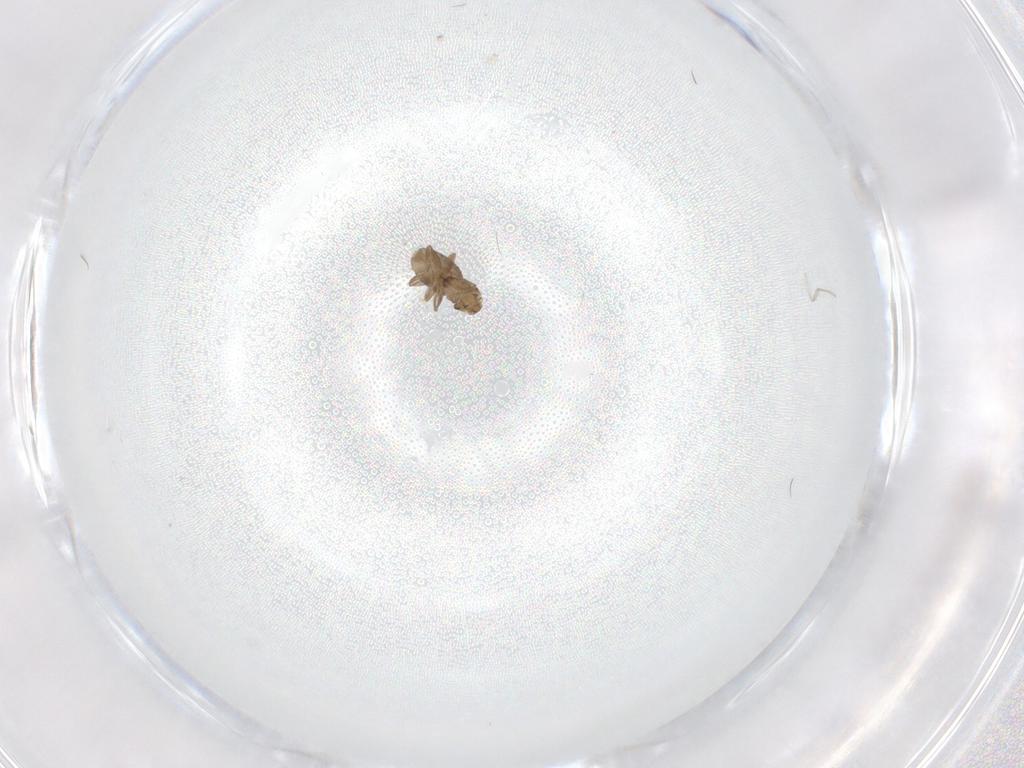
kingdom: Animalia
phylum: Arthropoda
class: Insecta
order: Diptera
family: Cecidomyiidae
